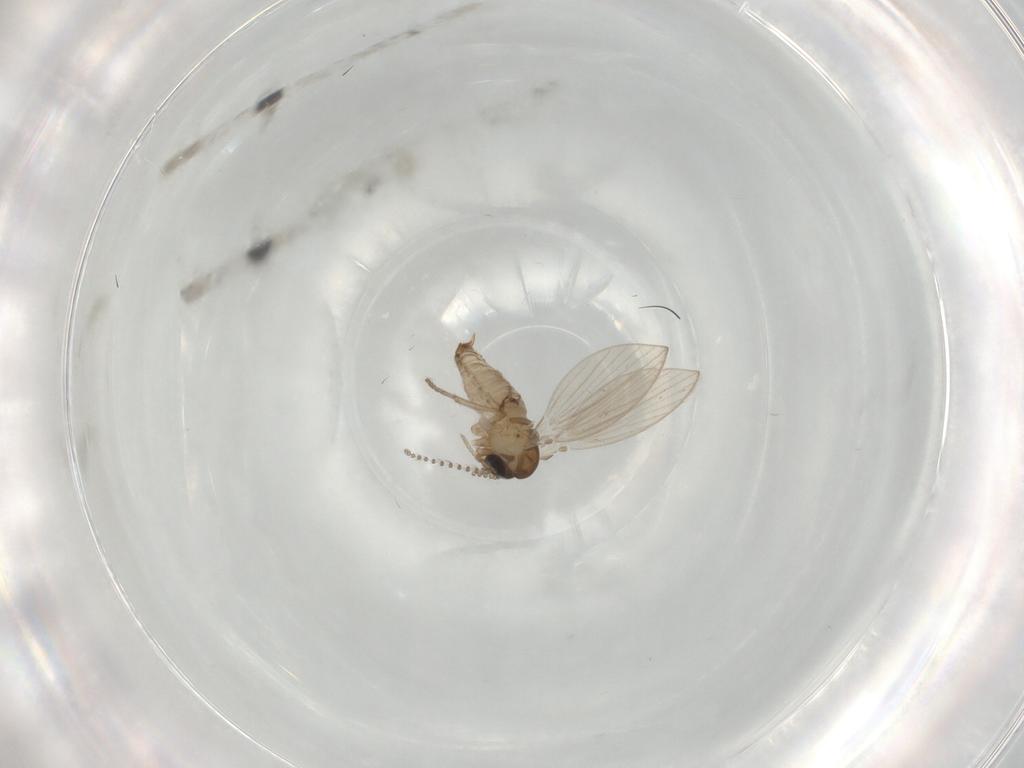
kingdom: Animalia
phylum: Arthropoda
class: Insecta
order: Diptera
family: Psychodidae
